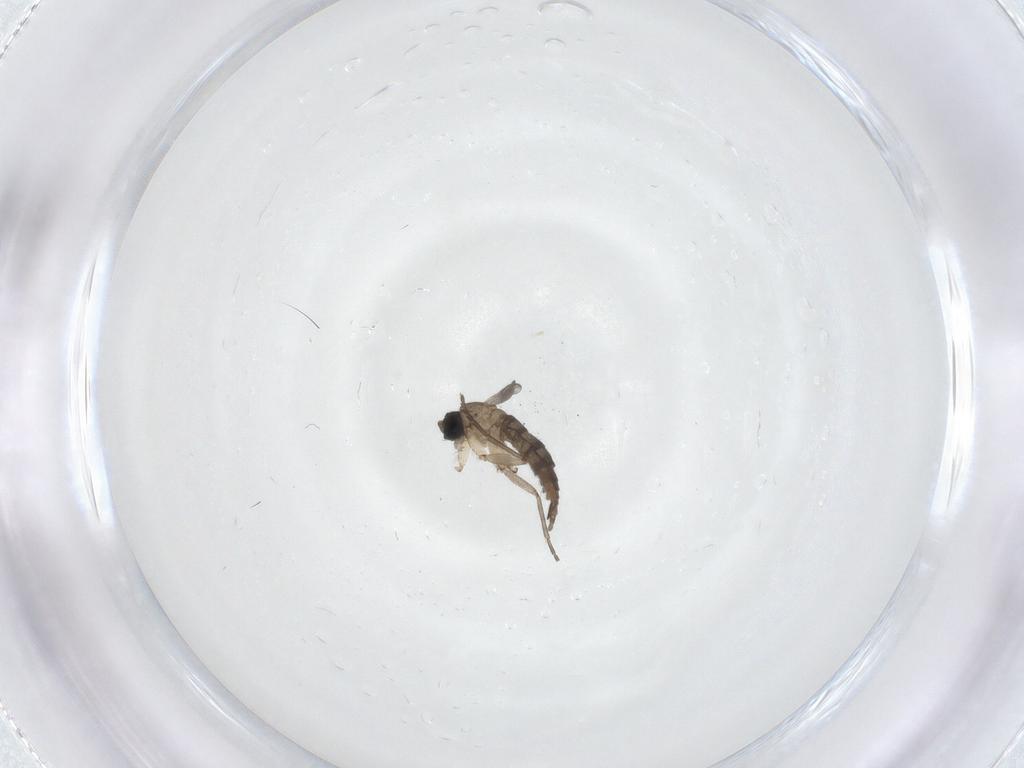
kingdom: Animalia
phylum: Arthropoda
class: Insecta
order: Diptera
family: Sciaridae
